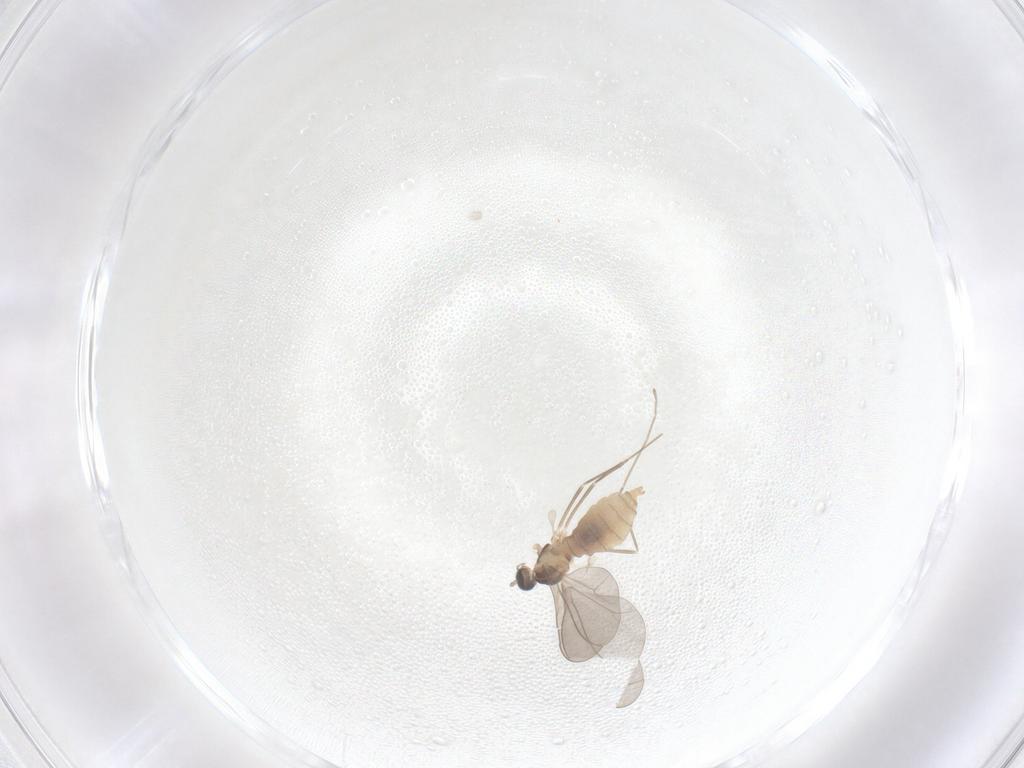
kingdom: Animalia
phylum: Arthropoda
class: Insecta
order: Diptera
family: Cecidomyiidae
